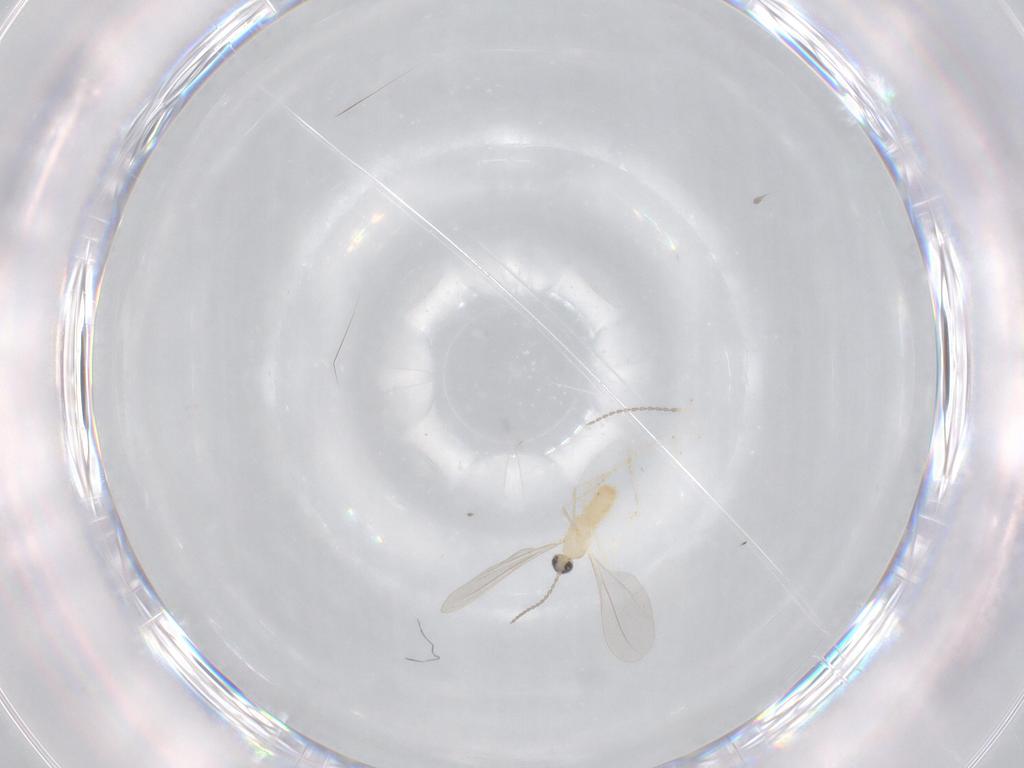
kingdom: Animalia
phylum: Arthropoda
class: Insecta
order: Diptera
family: Cecidomyiidae
